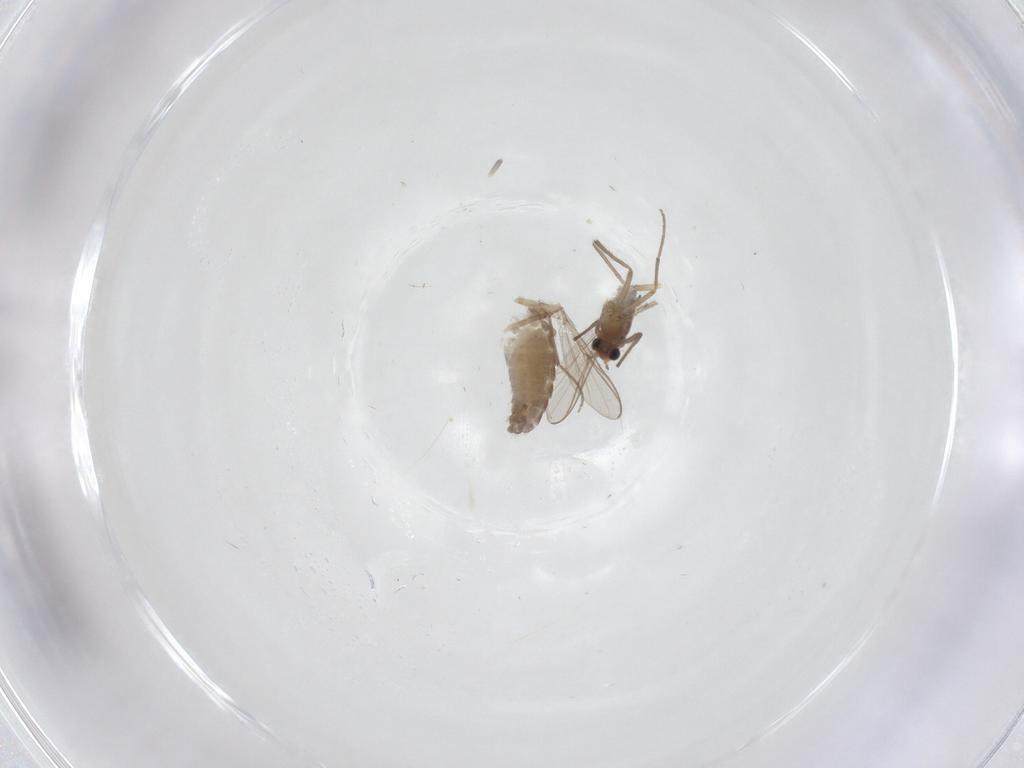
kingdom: Animalia
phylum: Arthropoda
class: Insecta
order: Diptera
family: Chironomidae
